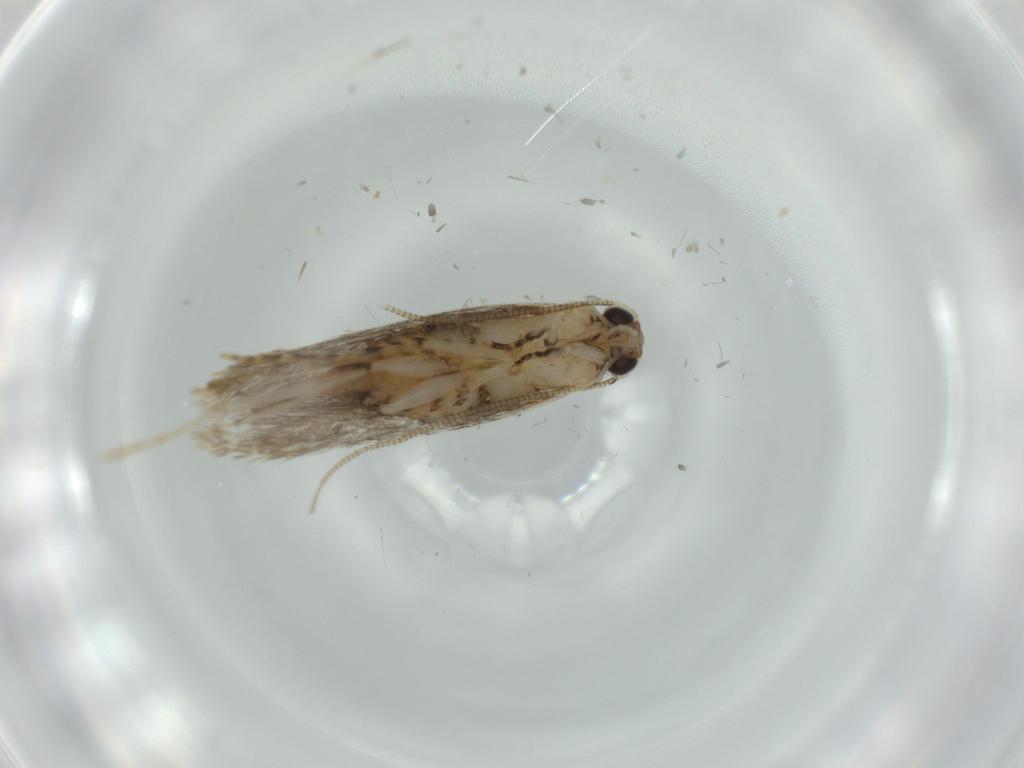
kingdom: Animalia
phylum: Arthropoda
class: Insecta
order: Lepidoptera
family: Tineidae
